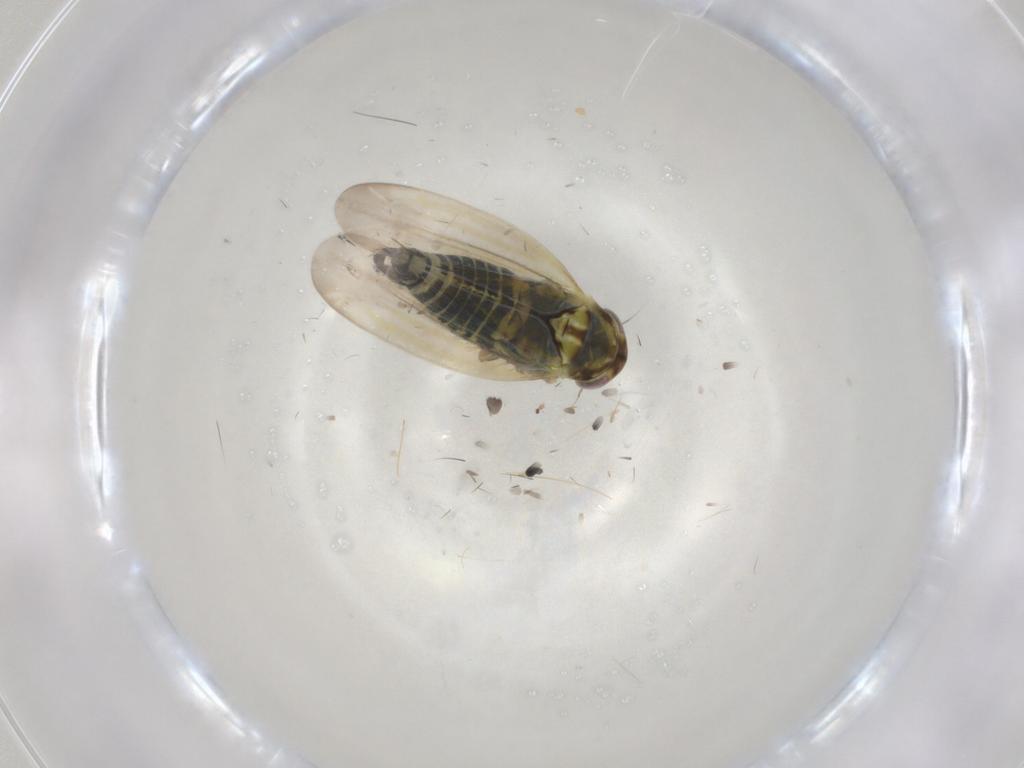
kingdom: Animalia
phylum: Arthropoda
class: Insecta
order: Hemiptera
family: Cicadellidae
